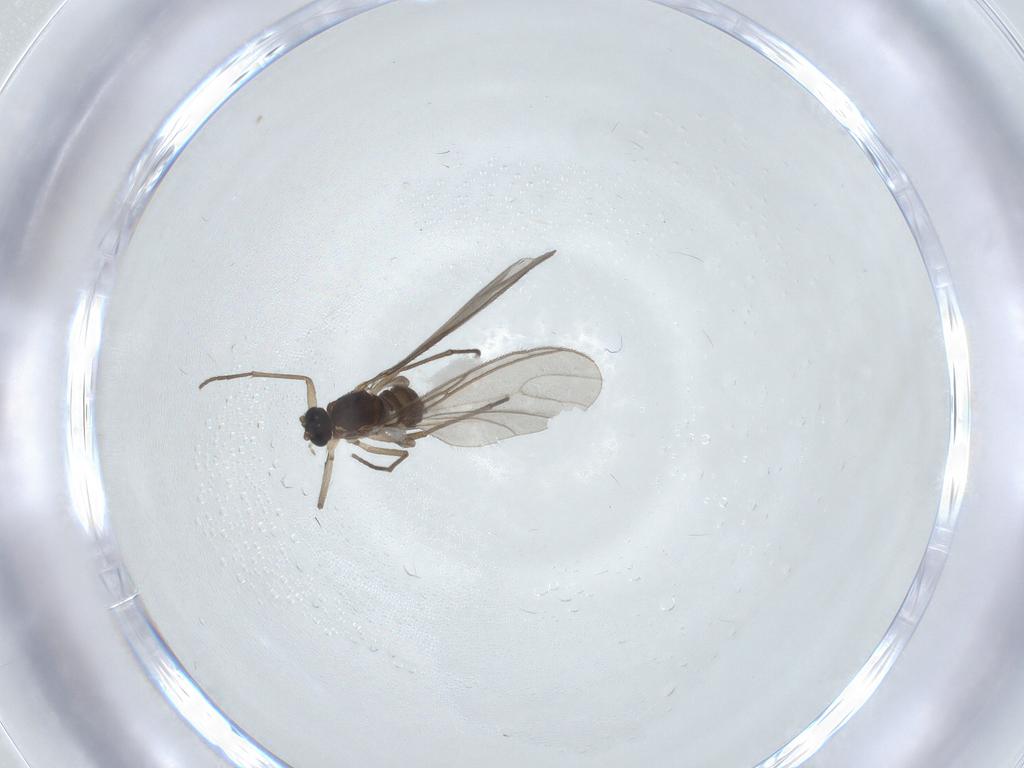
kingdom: Animalia
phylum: Arthropoda
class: Insecta
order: Diptera
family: Sciaridae
